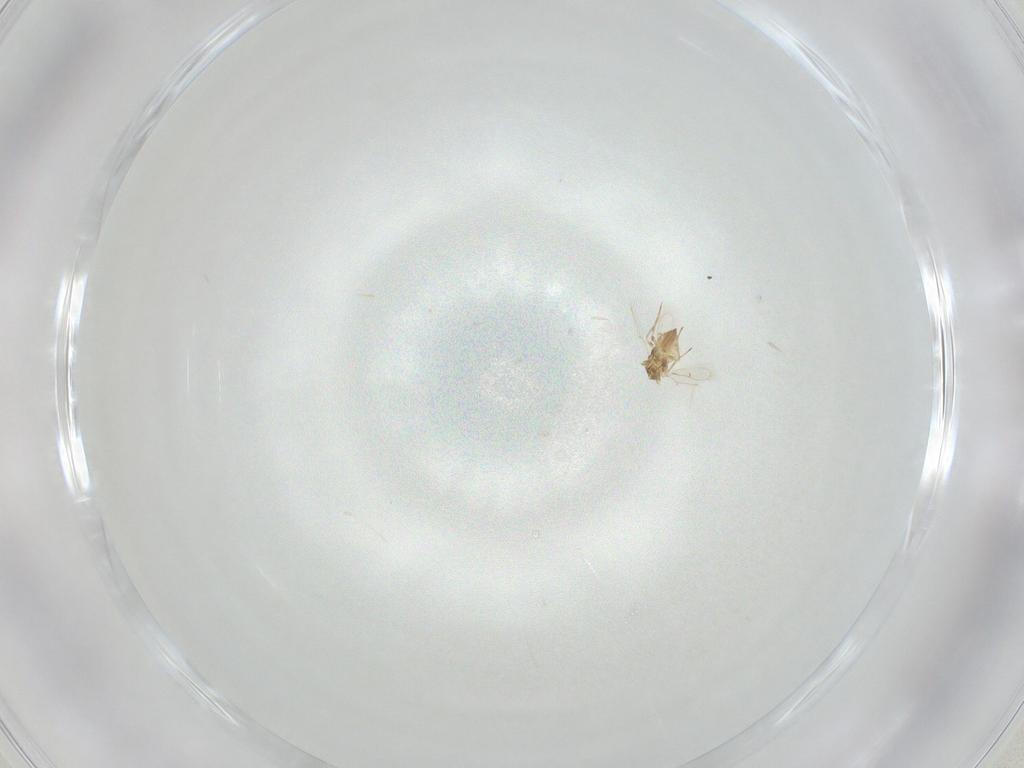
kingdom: Animalia
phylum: Arthropoda
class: Insecta
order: Hymenoptera
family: Trichogrammatidae
